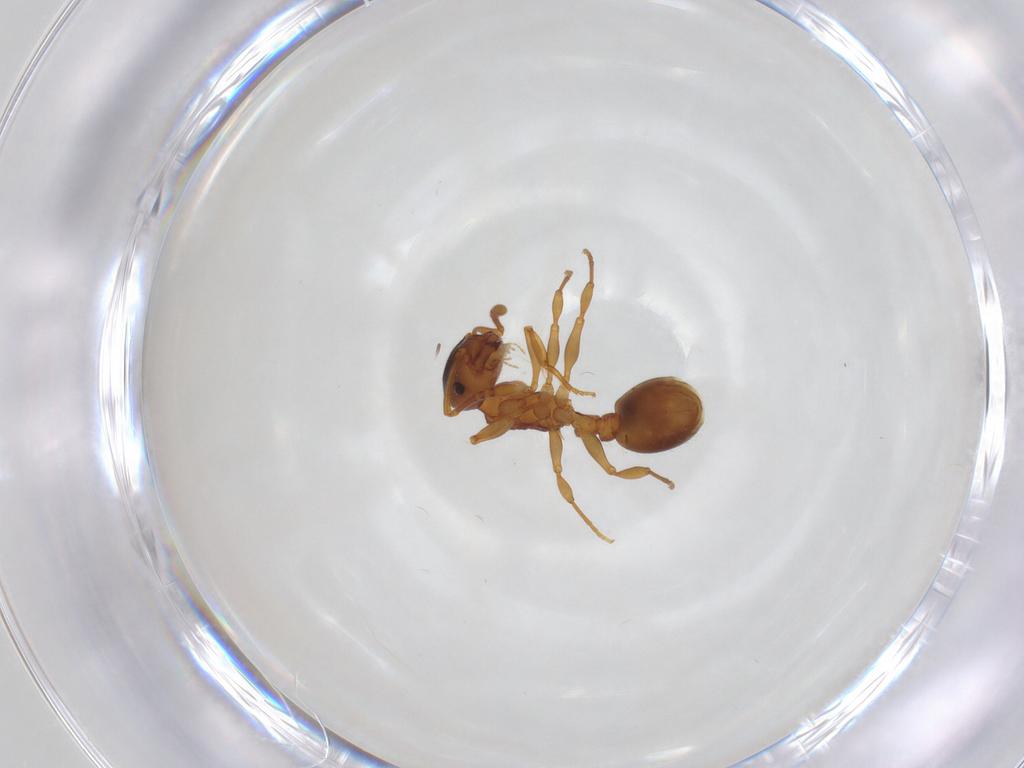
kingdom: Animalia
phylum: Arthropoda
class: Insecta
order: Hymenoptera
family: Formicidae
